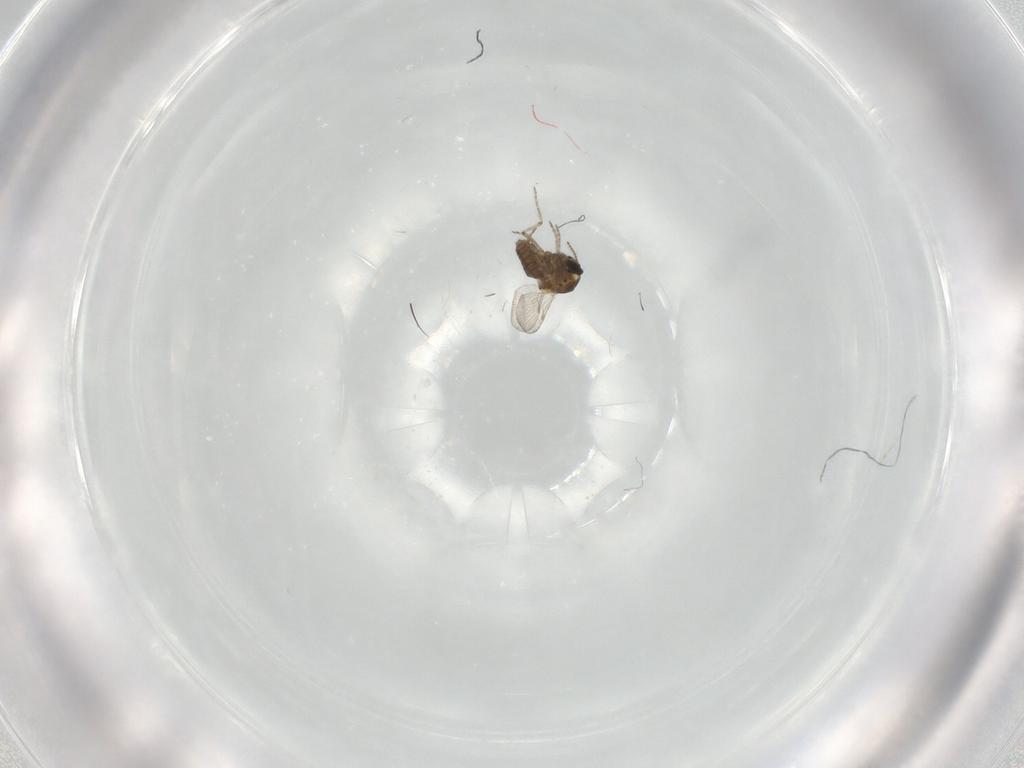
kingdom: Animalia
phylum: Arthropoda
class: Insecta
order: Diptera
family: Ceratopogonidae
